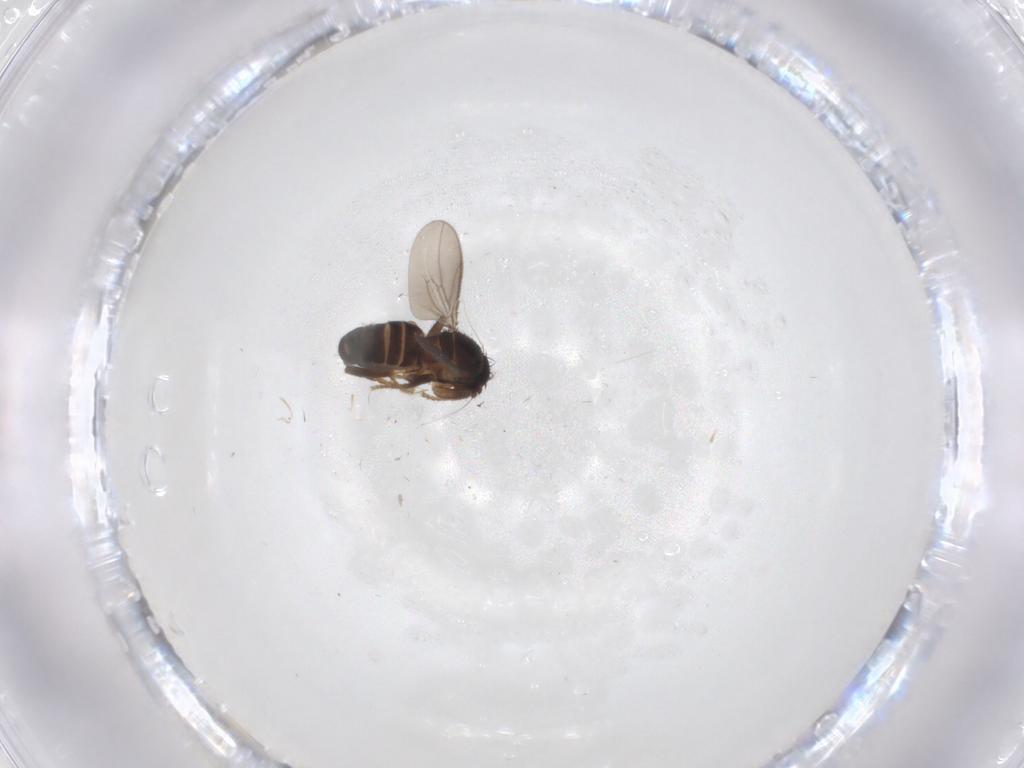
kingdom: Animalia
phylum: Arthropoda
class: Insecta
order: Diptera
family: Sphaeroceridae
